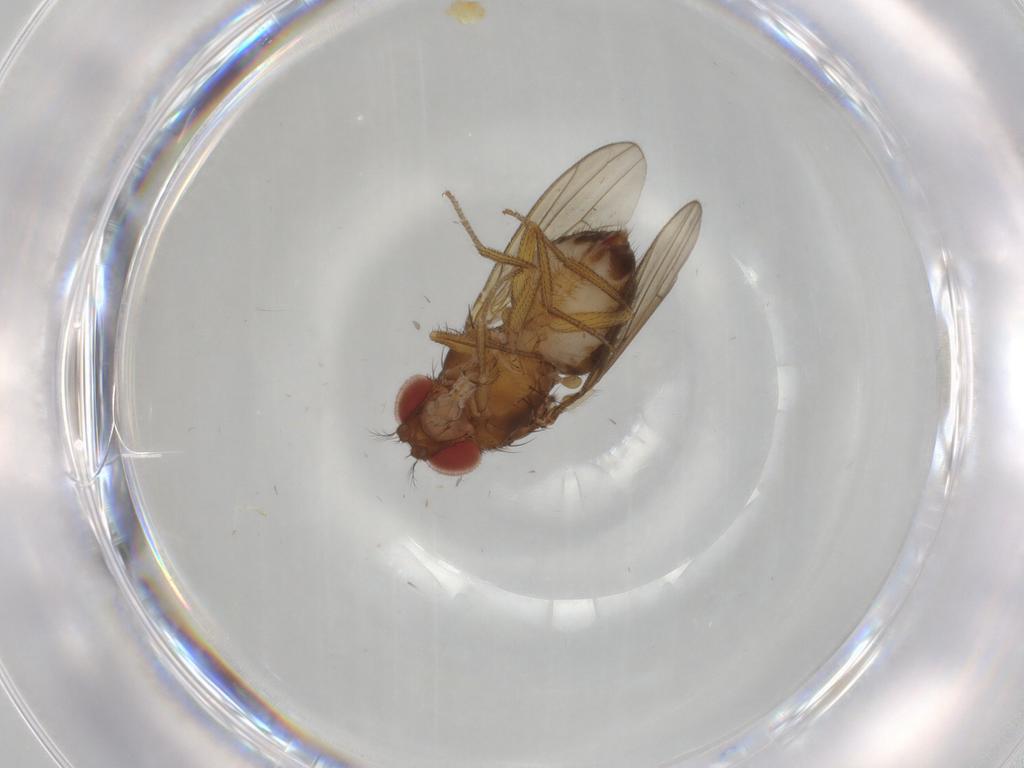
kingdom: Animalia
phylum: Arthropoda
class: Insecta
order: Diptera
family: Drosophilidae
